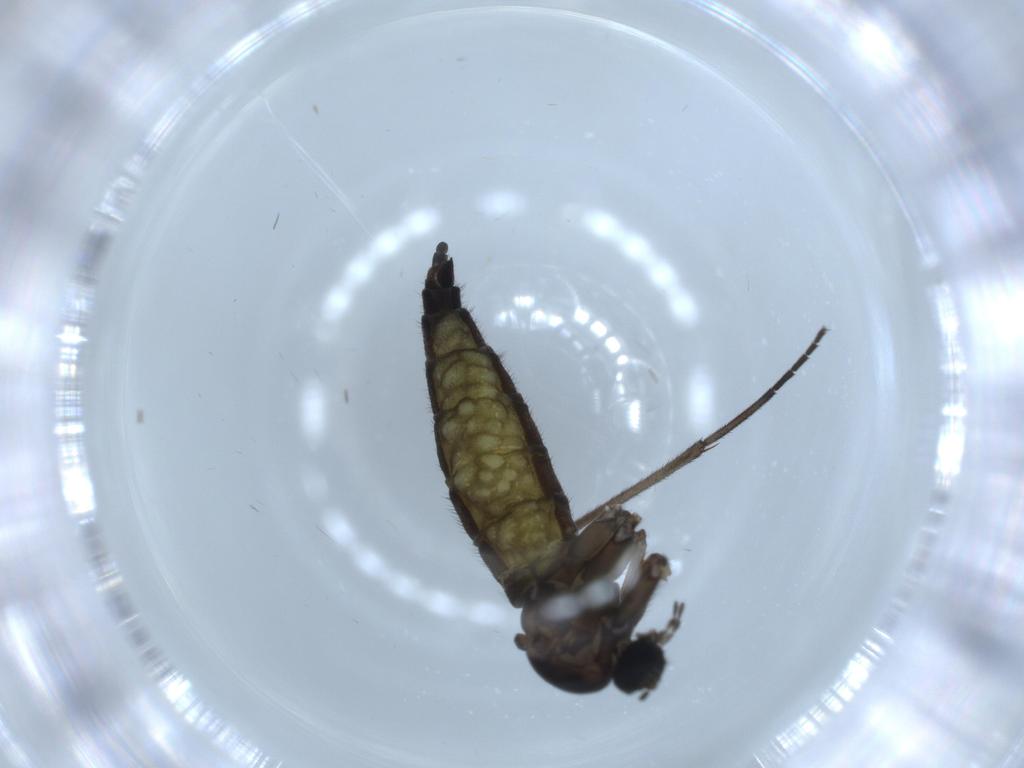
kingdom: Animalia
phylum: Arthropoda
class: Insecta
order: Diptera
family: Sciaridae
